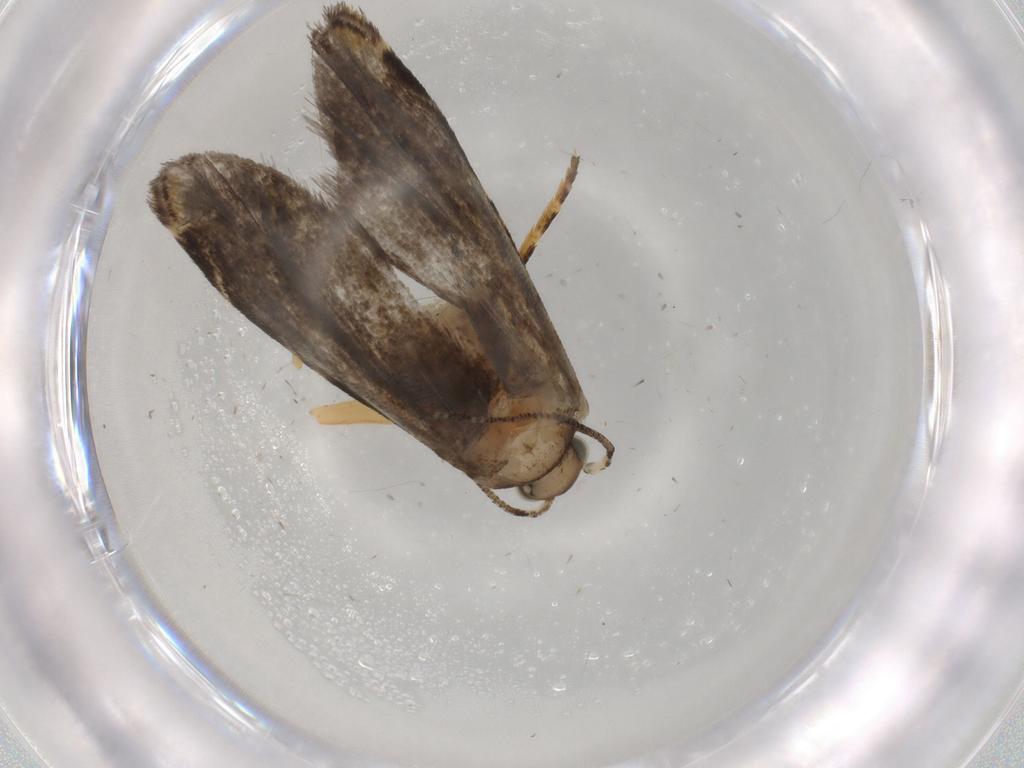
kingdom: Animalia
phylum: Arthropoda
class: Insecta
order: Lepidoptera
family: Tineidae
